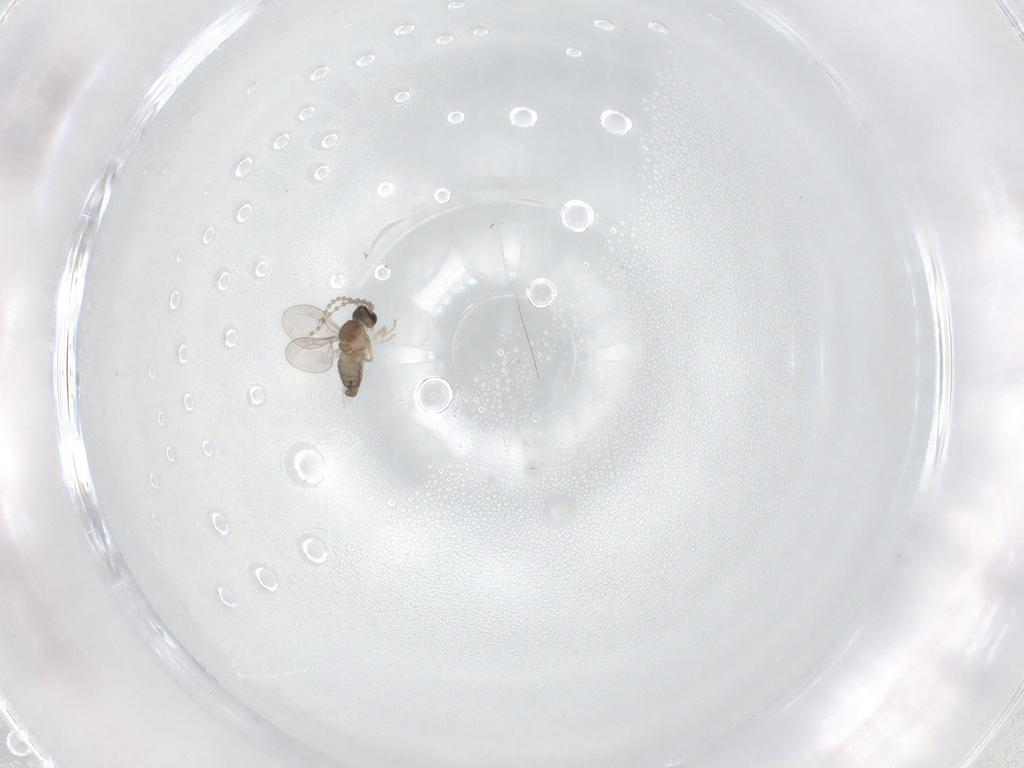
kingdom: Animalia
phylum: Arthropoda
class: Insecta
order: Diptera
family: Cecidomyiidae
